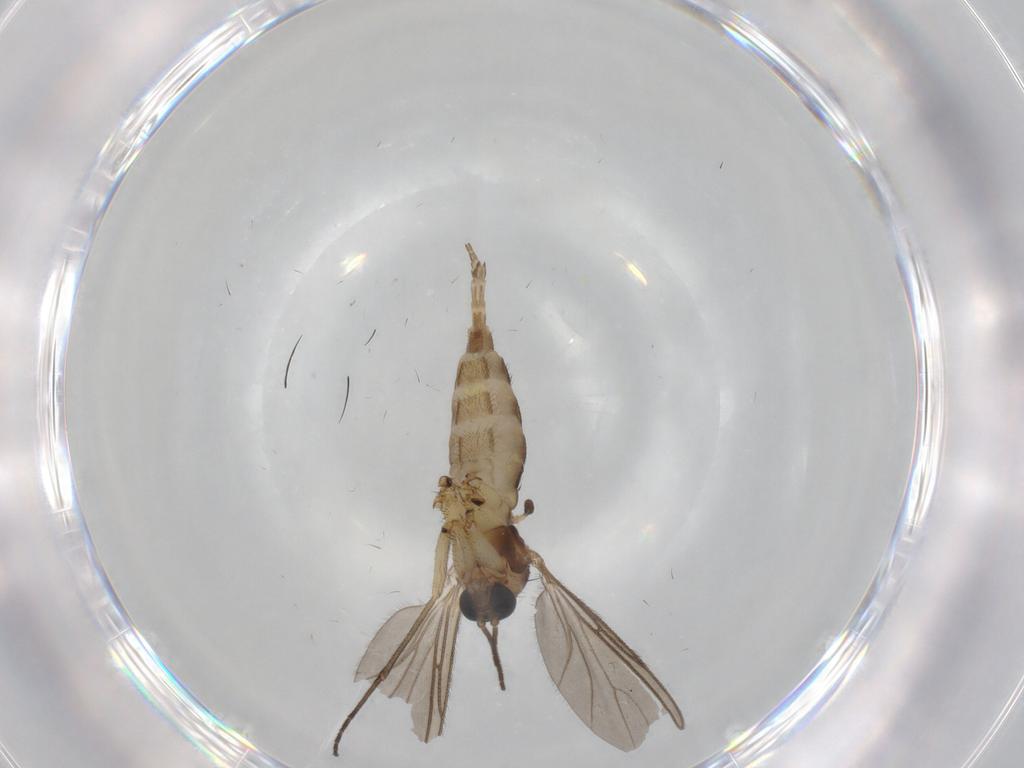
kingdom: Animalia
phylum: Arthropoda
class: Insecta
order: Diptera
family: Sciaridae
